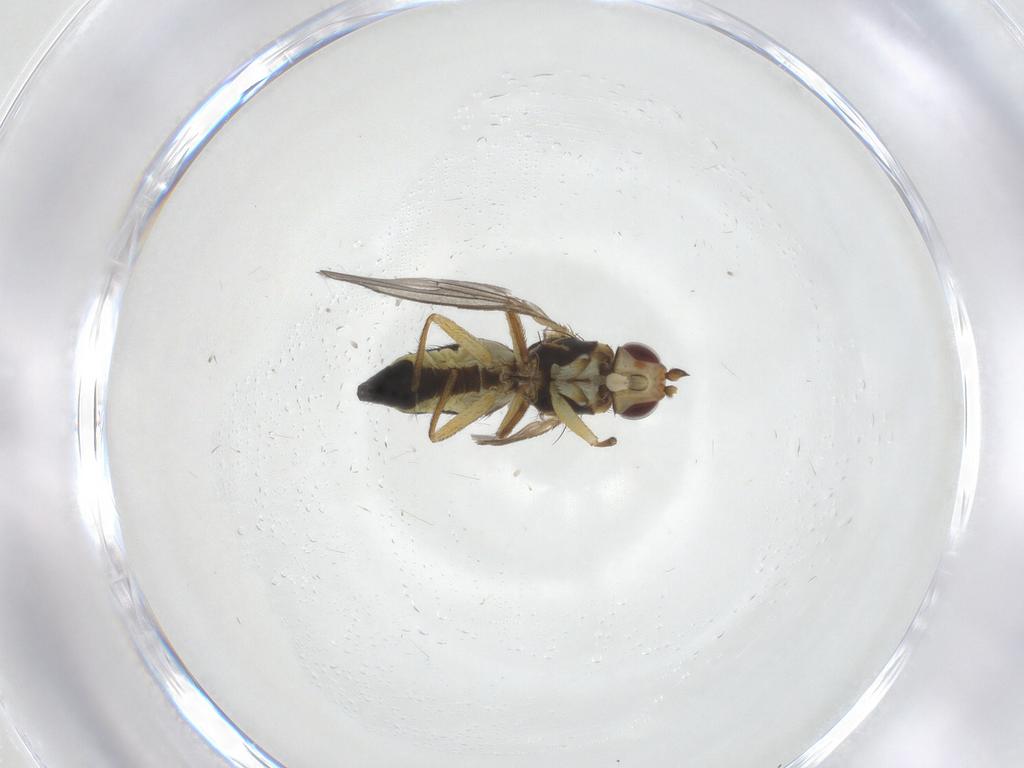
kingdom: Animalia
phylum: Arthropoda
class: Insecta
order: Diptera
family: Agromyzidae
